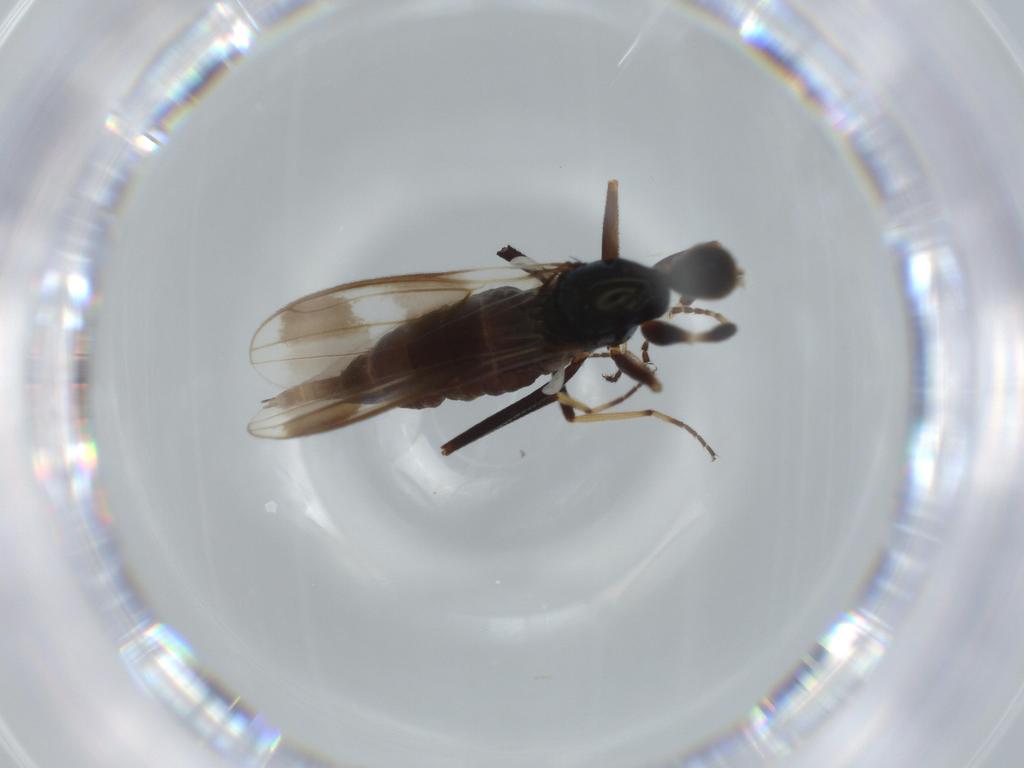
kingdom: Animalia
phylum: Arthropoda
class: Insecta
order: Diptera
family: Hybotidae
